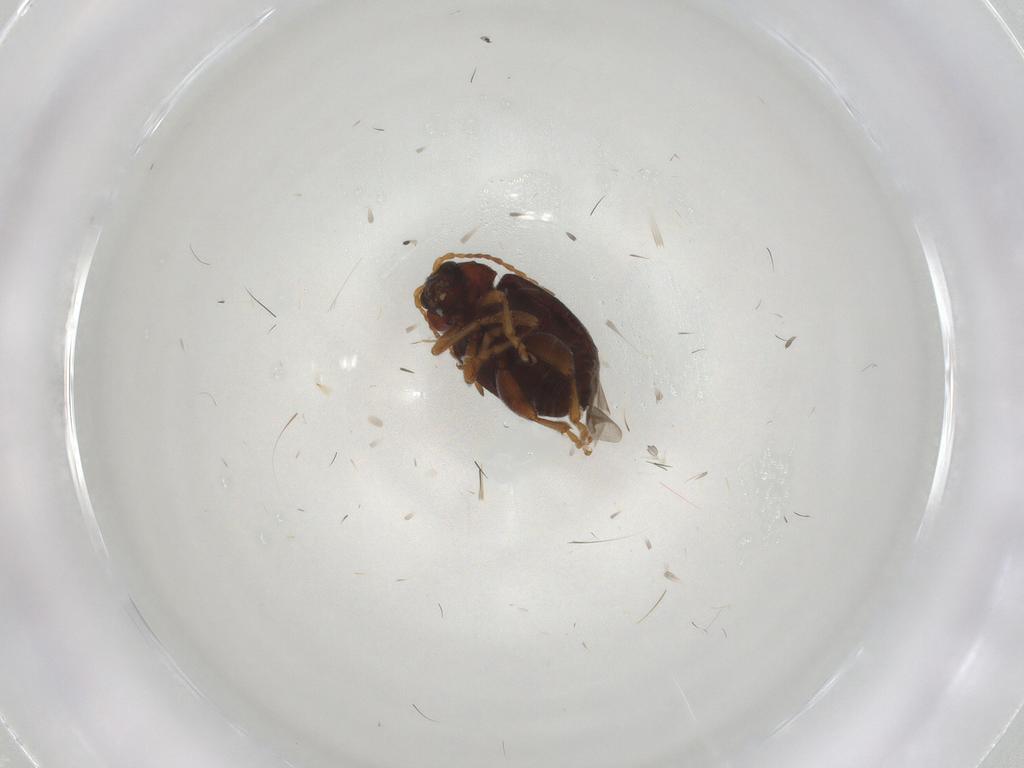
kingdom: Animalia
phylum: Arthropoda
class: Insecta
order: Coleoptera
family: Chrysomelidae
